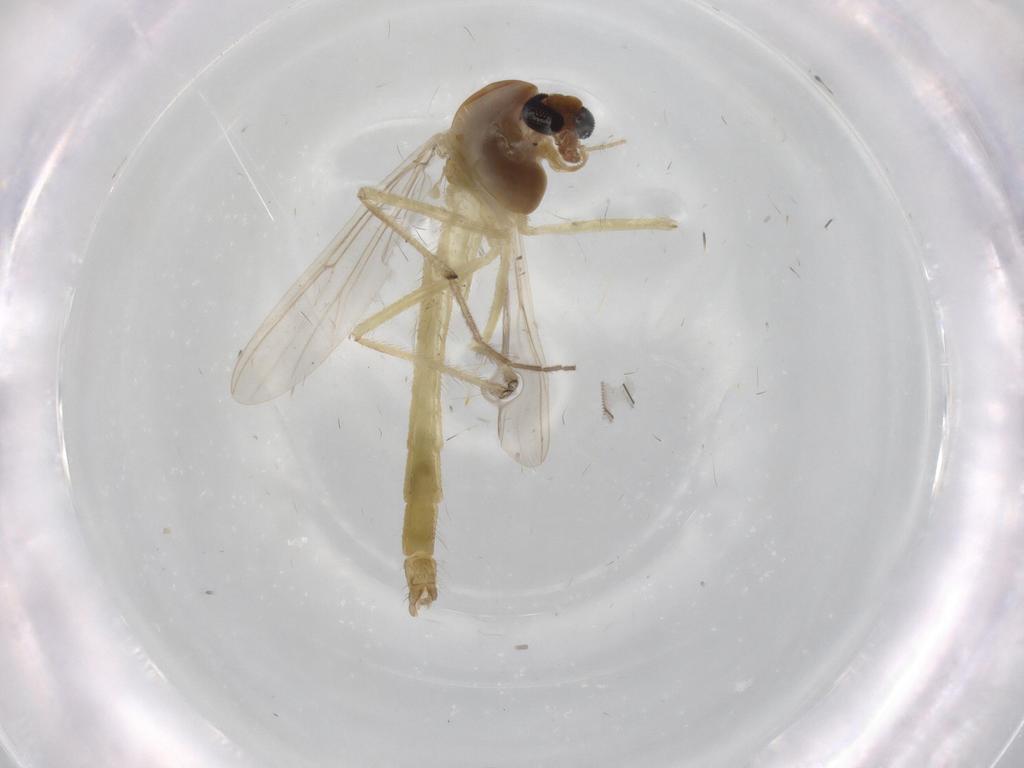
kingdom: Animalia
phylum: Arthropoda
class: Insecta
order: Diptera
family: Chironomidae
